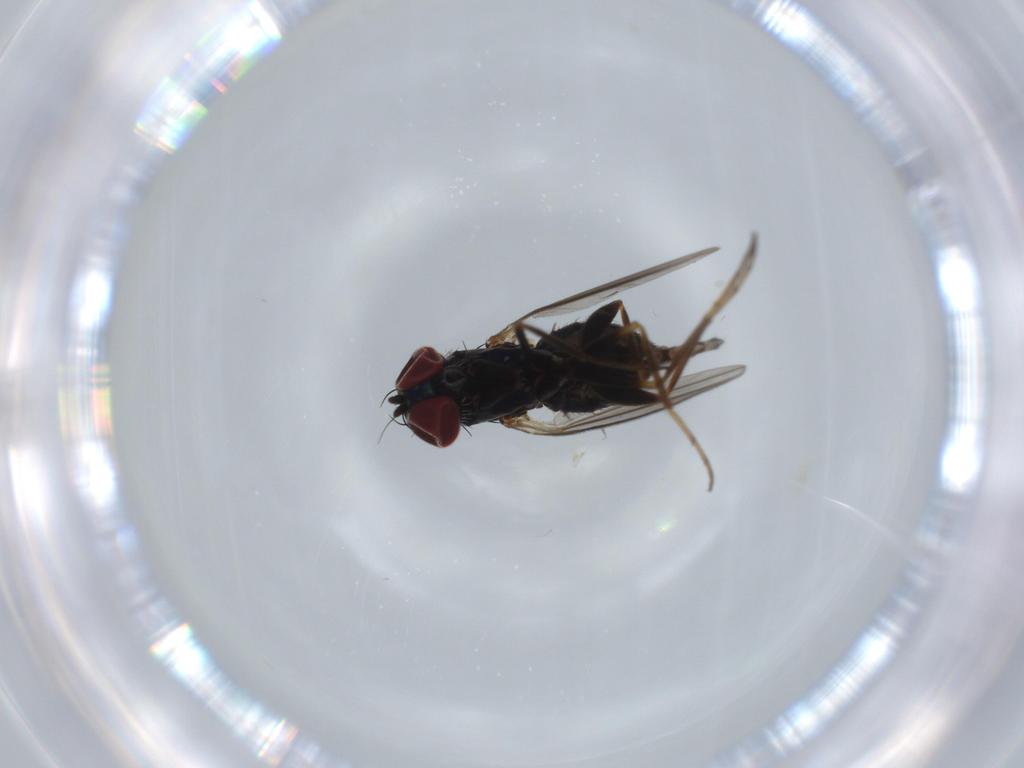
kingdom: Animalia
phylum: Arthropoda
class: Insecta
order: Diptera
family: Dolichopodidae
